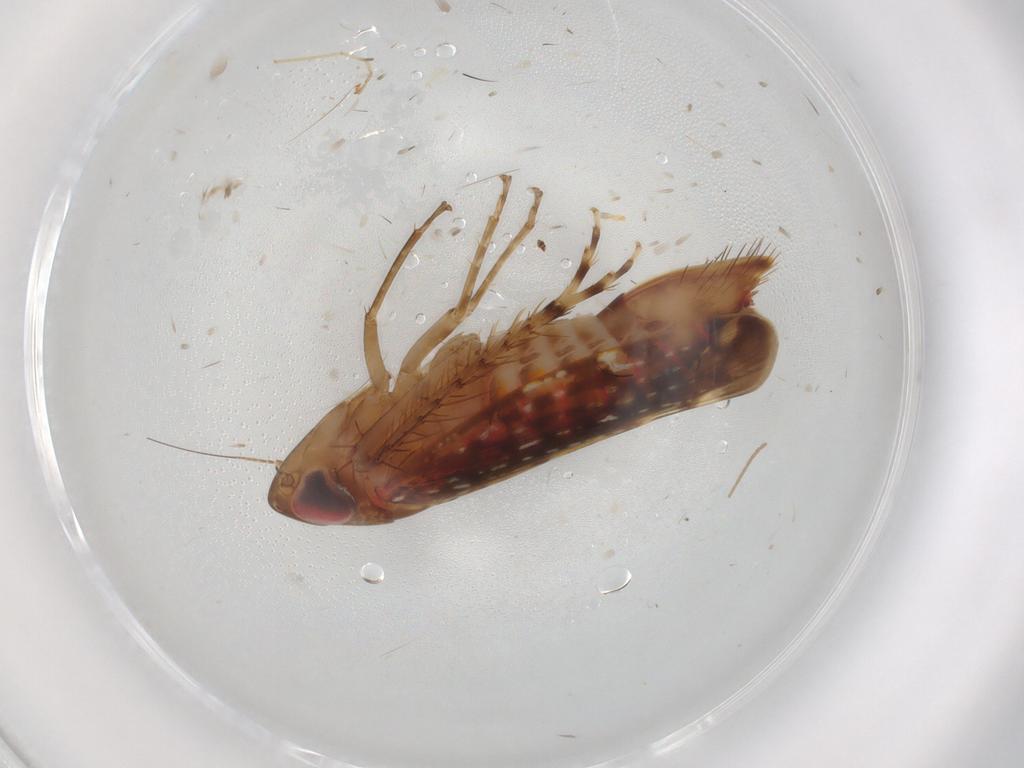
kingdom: Animalia
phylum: Arthropoda
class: Insecta
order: Hemiptera
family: Cicadellidae
